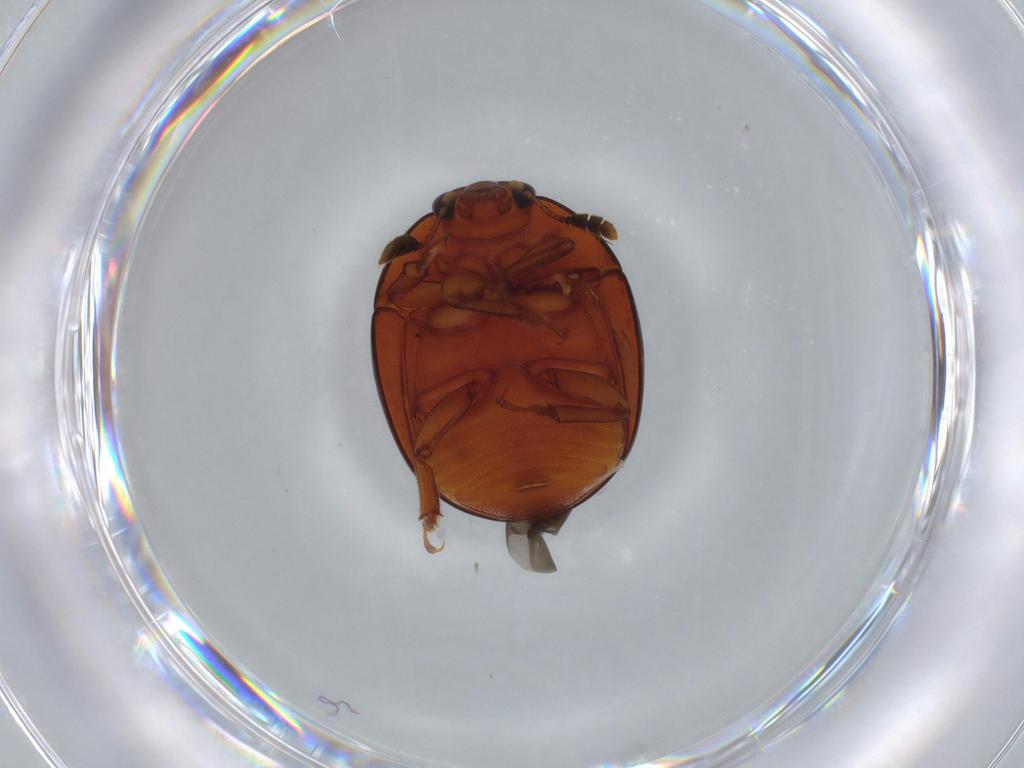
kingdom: Animalia
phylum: Arthropoda
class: Insecta
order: Coleoptera
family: Nitidulidae
